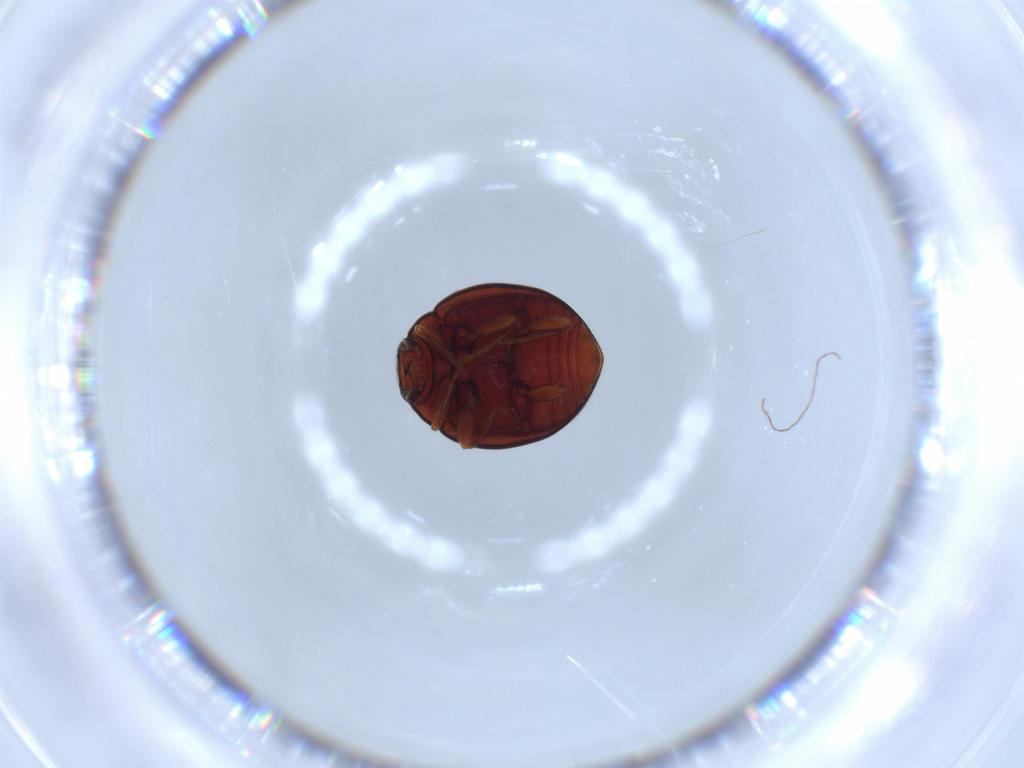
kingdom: Animalia
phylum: Arthropoda
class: Insecta
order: Coleoptera
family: Coccinellidae
